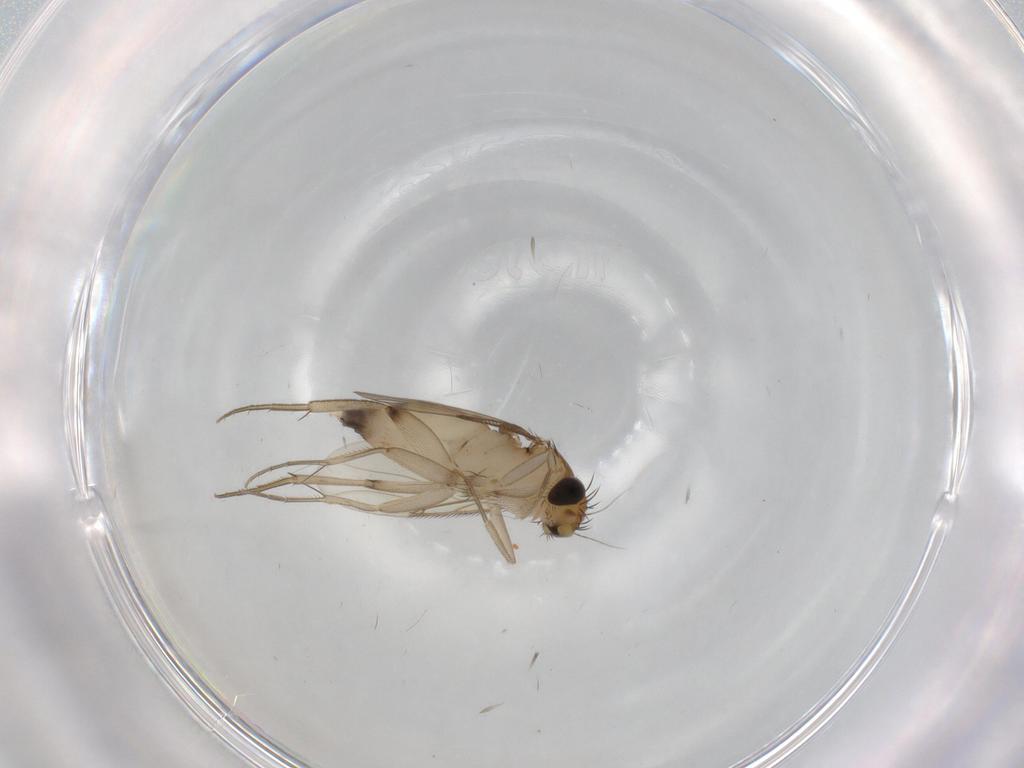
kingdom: Animalia
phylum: Arthropoda
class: Insecta
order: Diptera
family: Phoridae
